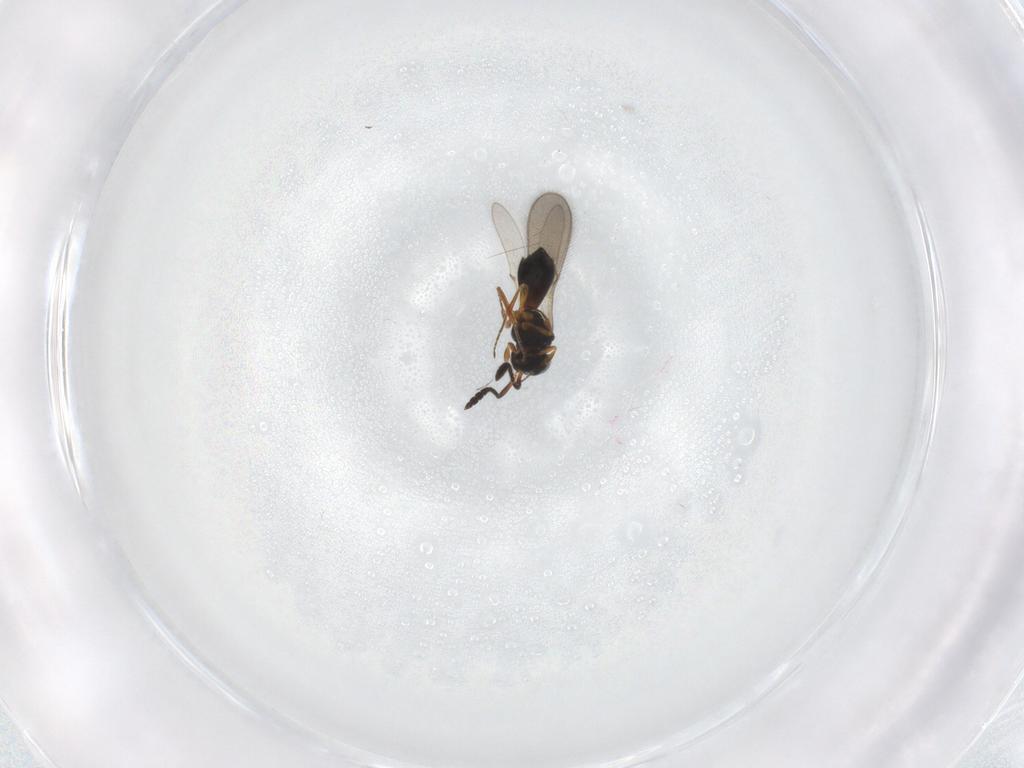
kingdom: Animalia
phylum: Arthropoda
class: Insecta
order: Hymenoptera
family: Scelionidae
